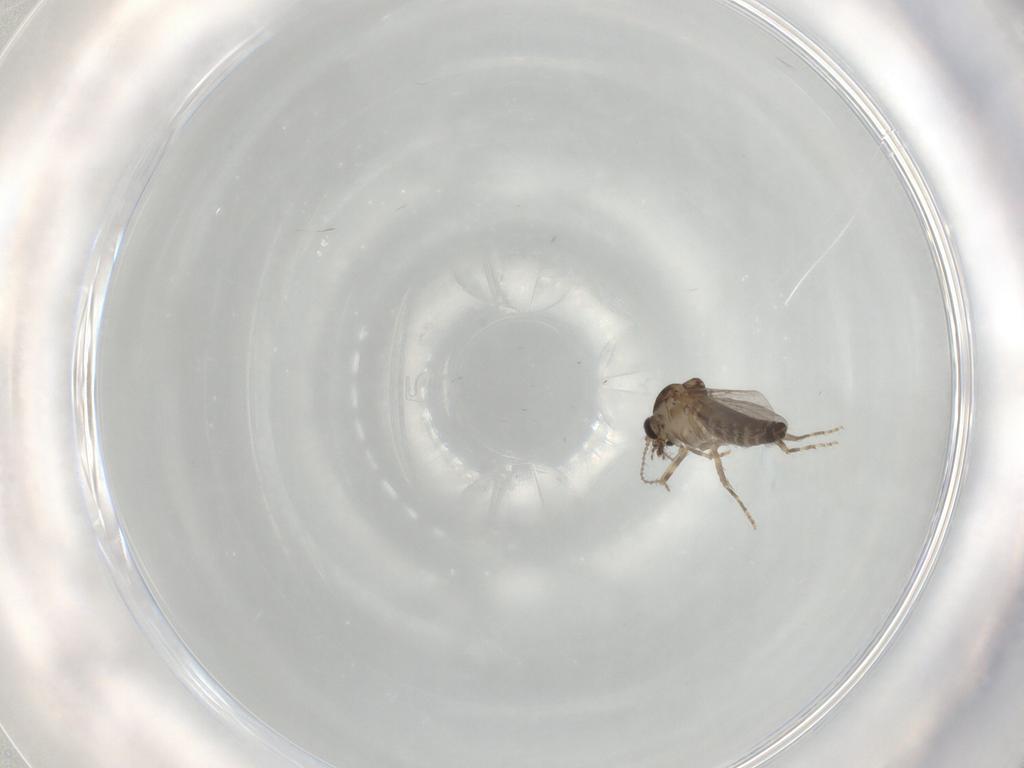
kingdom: Animalia
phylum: Arthropoda
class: Insecta
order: Diptera
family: Ceratopogonidae
